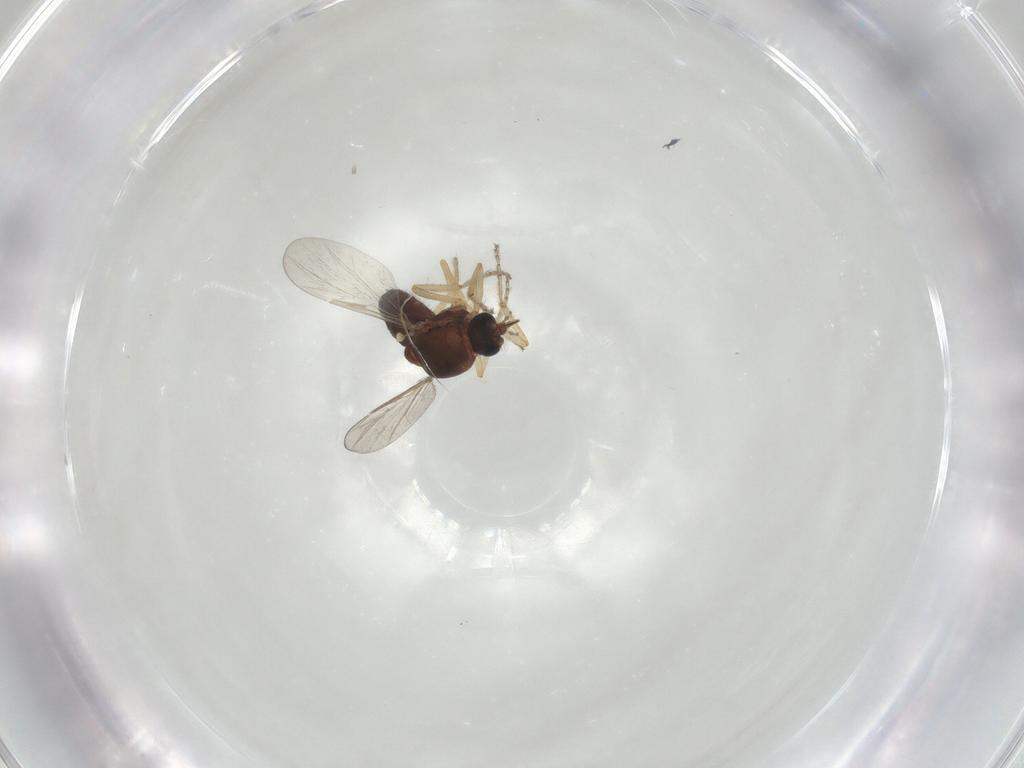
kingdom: Animalia
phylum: Arthropoda
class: Insecta
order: Diptera
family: Ceratopogonidae
